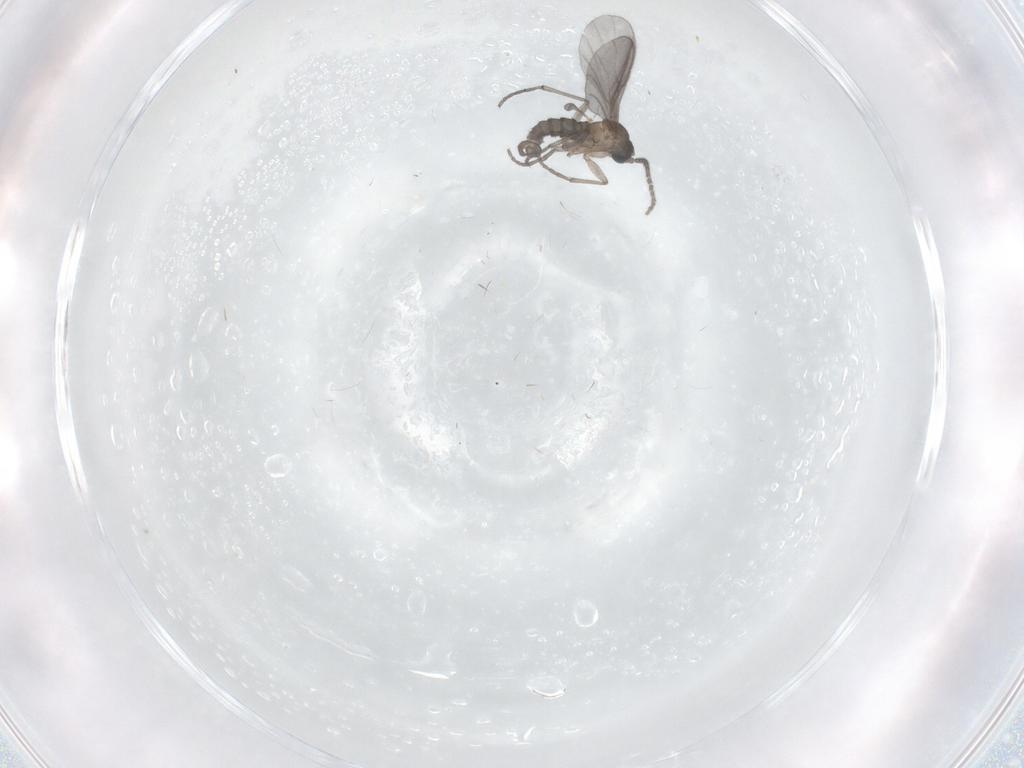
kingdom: Animalia
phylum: Arthropoda
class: Insecta
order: Diptera
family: Sciaridae
